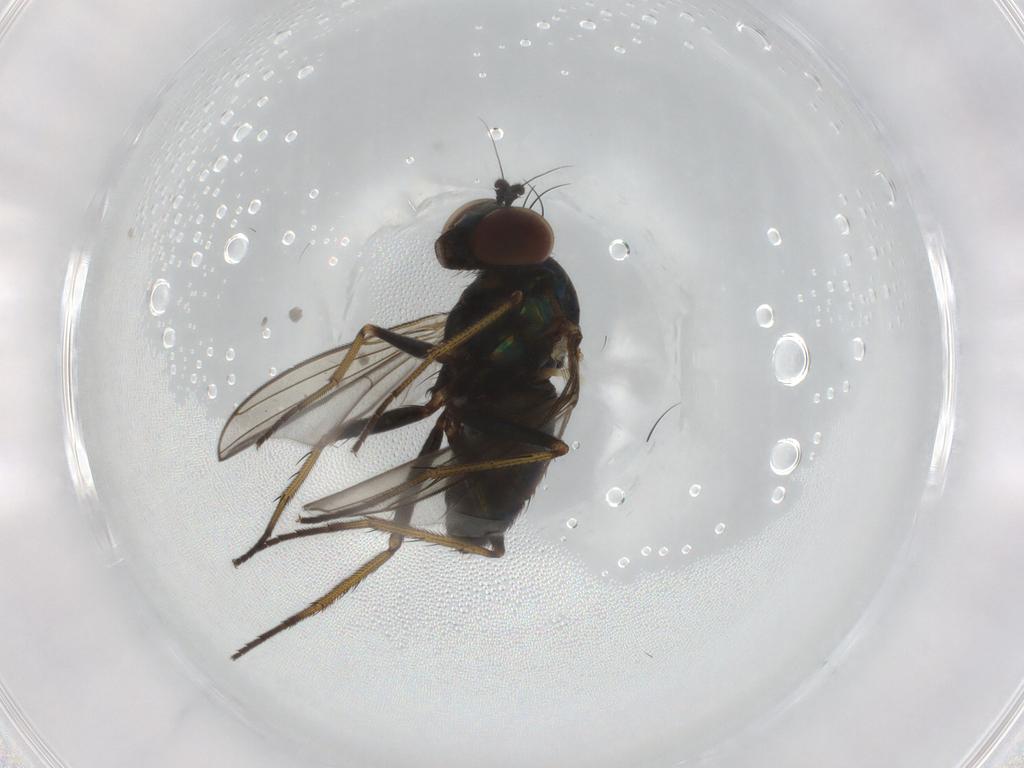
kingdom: Animalia
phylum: Arthropoda
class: Insecta
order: Diptera
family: Dolichopodidae
